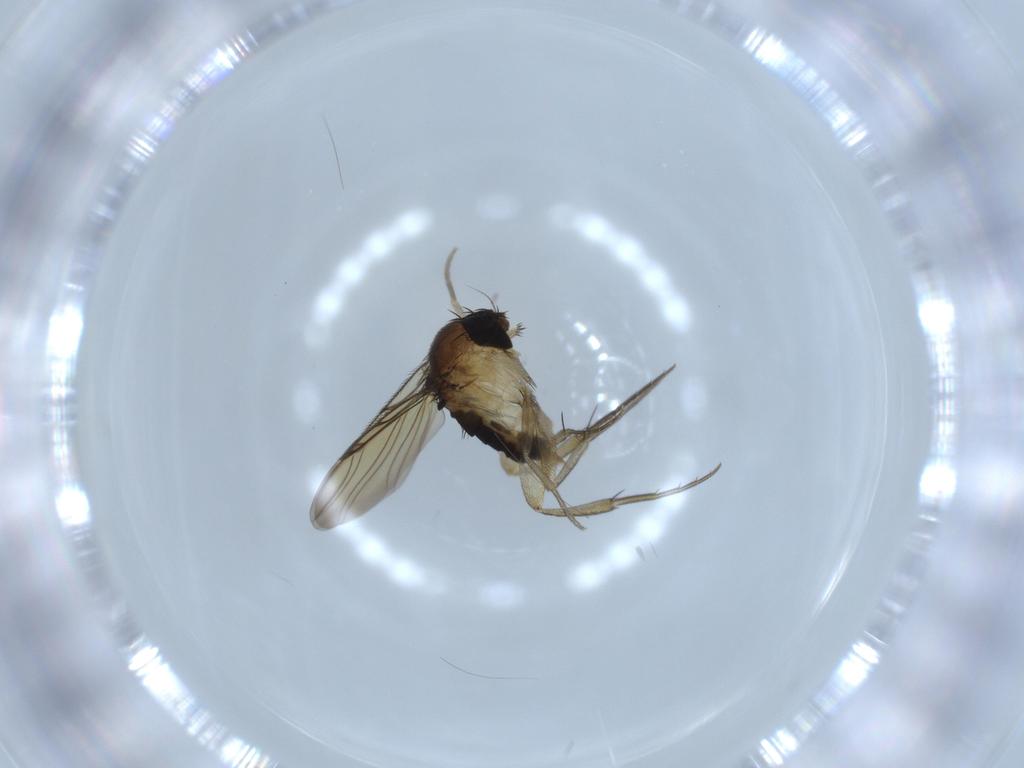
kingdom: Animalia
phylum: Arthropoda
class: Insecta
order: Diptera
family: Phoridae
